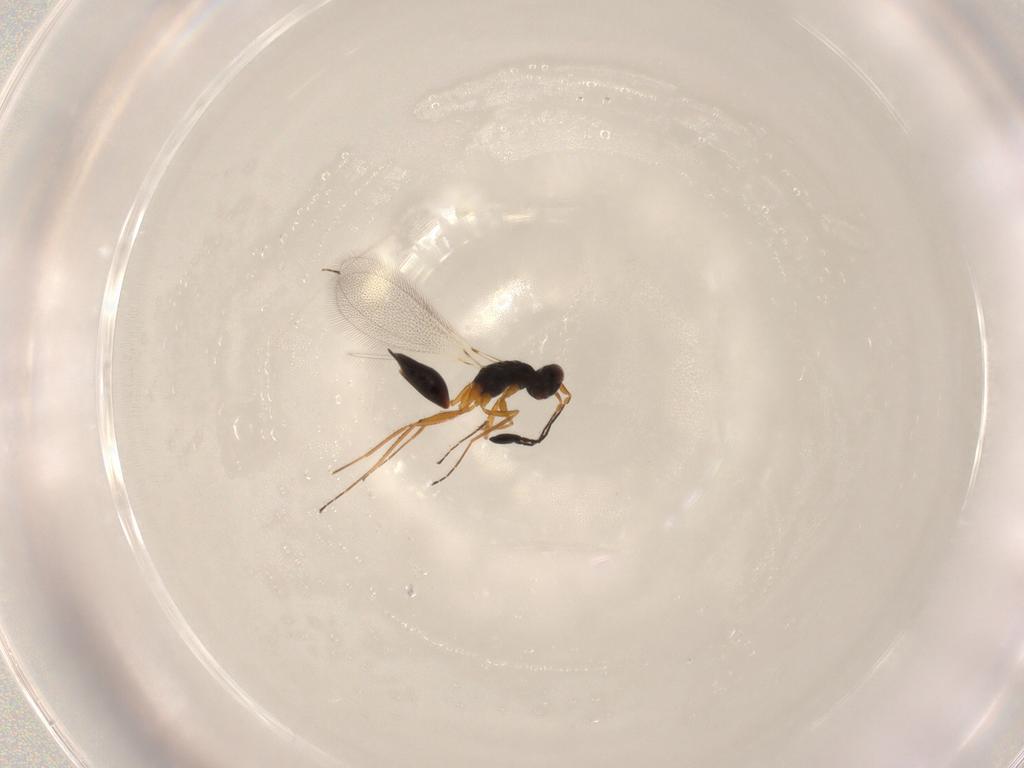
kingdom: Animalia
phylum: Arthropoda
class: Insecta
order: Hymenoptera
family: Mymaridae
